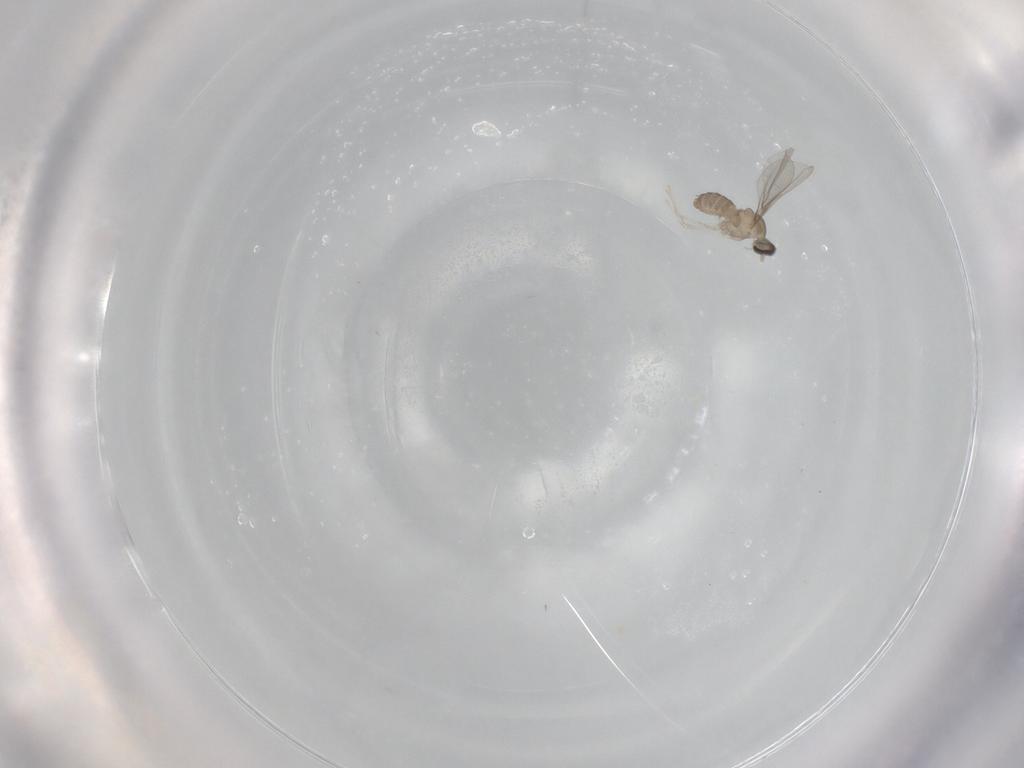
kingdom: Animalia
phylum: Arthropoda
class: Insecta
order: Diptera
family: Cecidomyiidae
